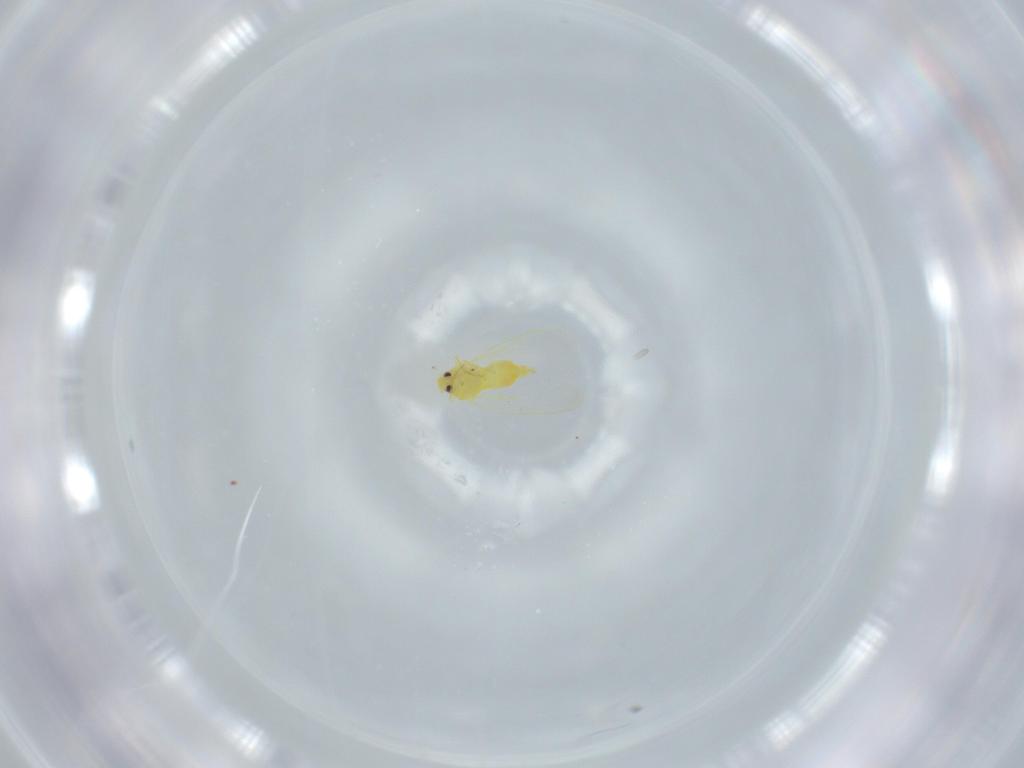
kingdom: Animalia
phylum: Arthropoda
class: Insecta
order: Hemiptera
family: Aleyrodidae
